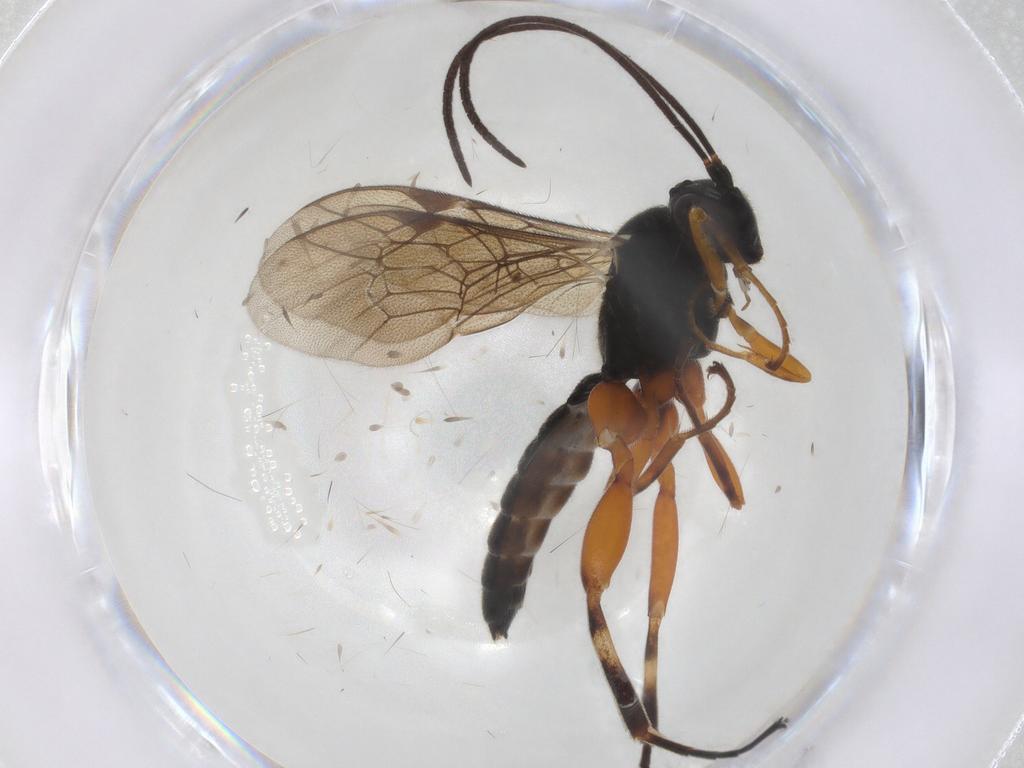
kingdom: Animalia
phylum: Arthropoda
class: Insecta
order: Hymenoptera
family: Ichneumonidae
